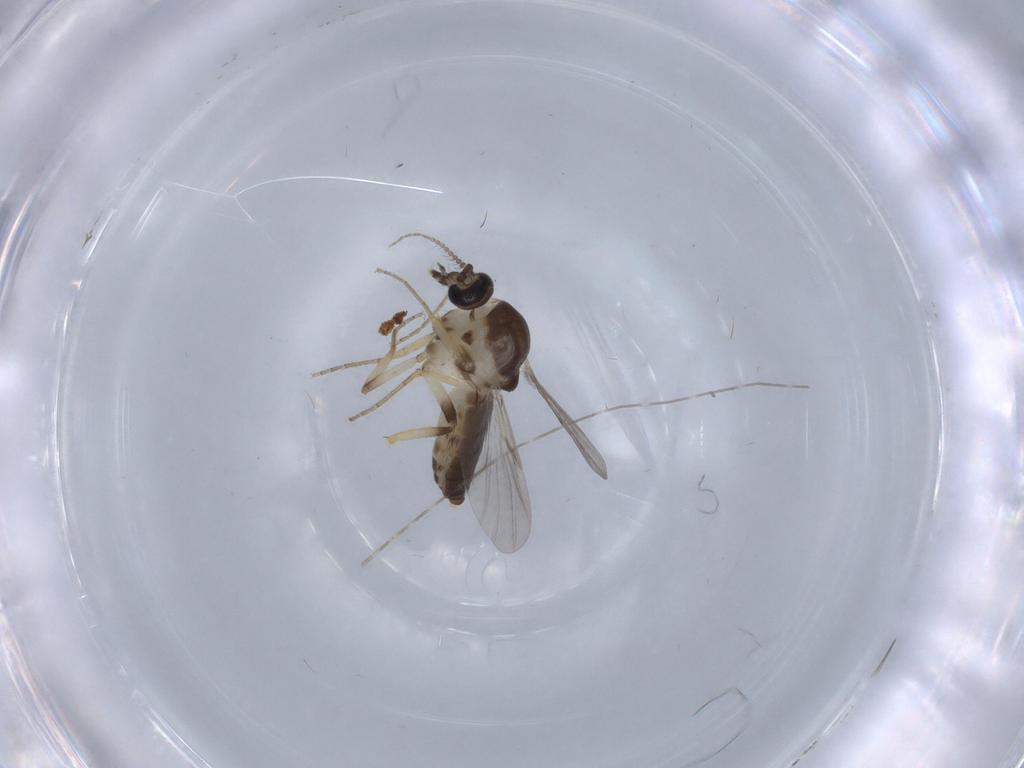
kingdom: Animalia
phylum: Arthropoda
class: Insecta
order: Diptera
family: Ceratopogonidae
